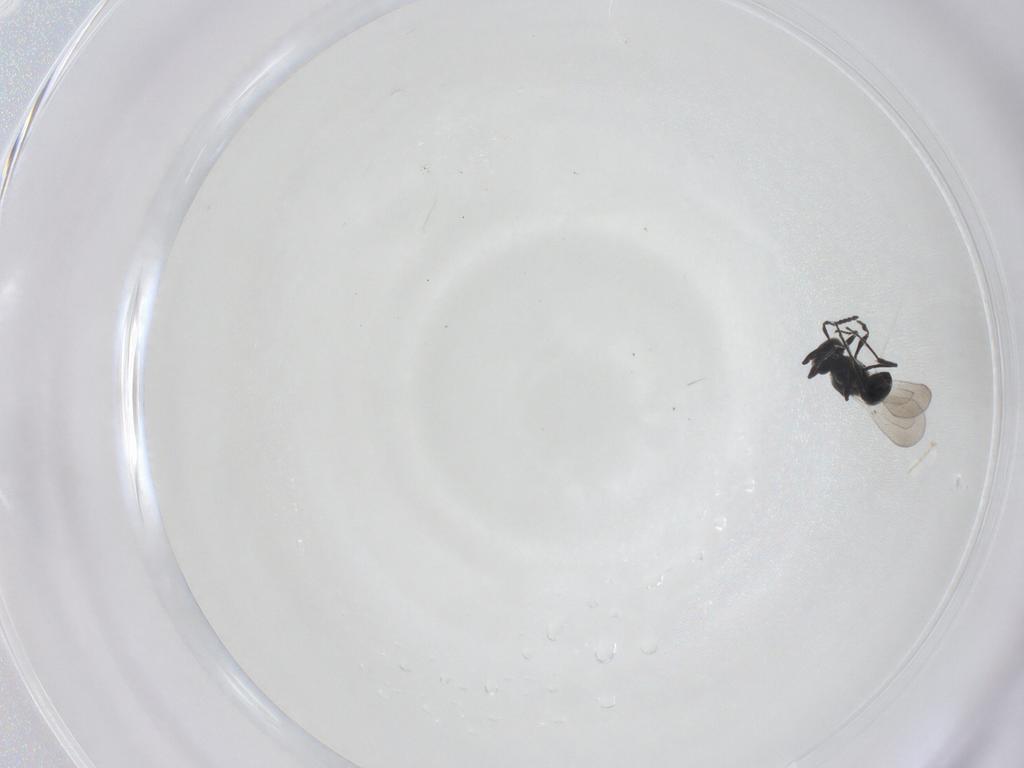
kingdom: Animalia
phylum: Arthropoda
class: Insecta
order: Hymenoptera
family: Platygastridae
